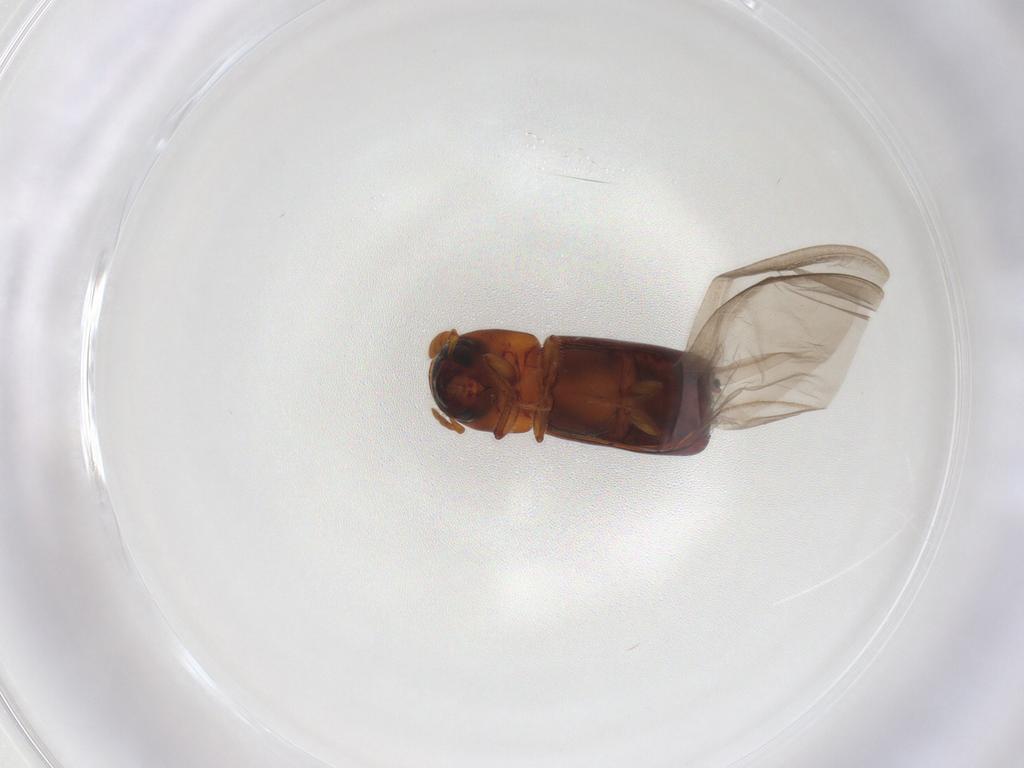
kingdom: Animalia
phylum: Arthropoda
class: Insecta
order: Coleoptera
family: Curculionidae
